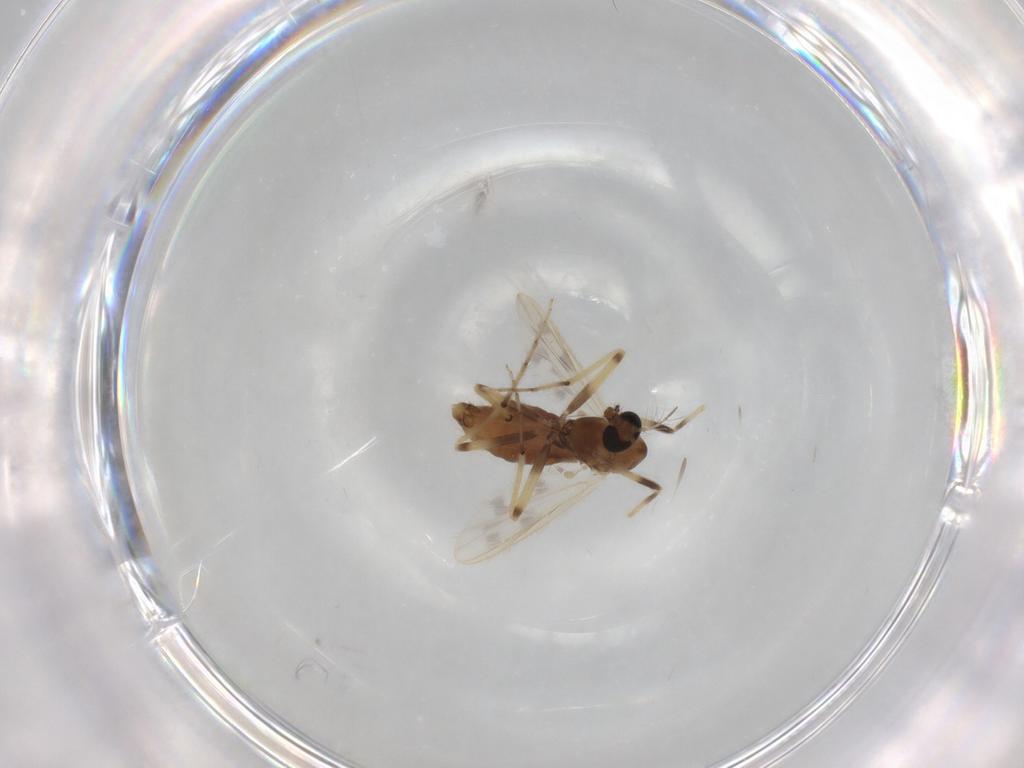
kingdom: Animalia
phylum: Arthropoda
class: Insecta
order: Diptera
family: Chironomidae
